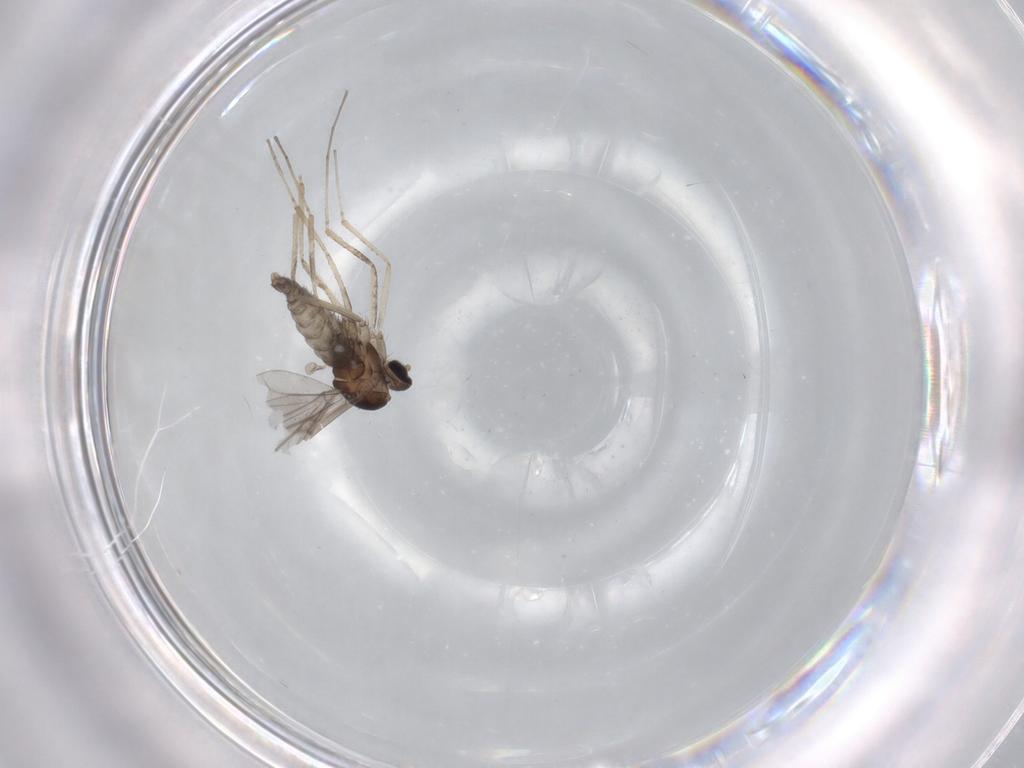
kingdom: Animalia
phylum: Arthropoda
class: Insecta
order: Diptera
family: Cecidomyiidae
